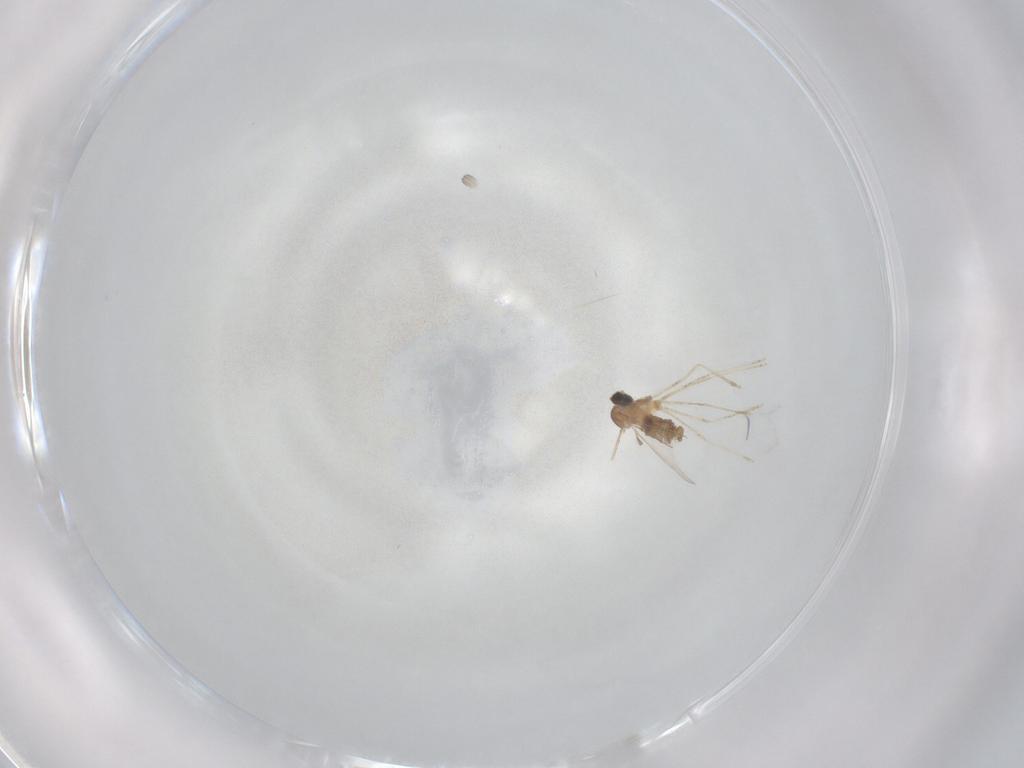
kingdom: Animalia
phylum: Arthropoda
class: Insecta
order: Diptera
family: Cecidomyiidae
